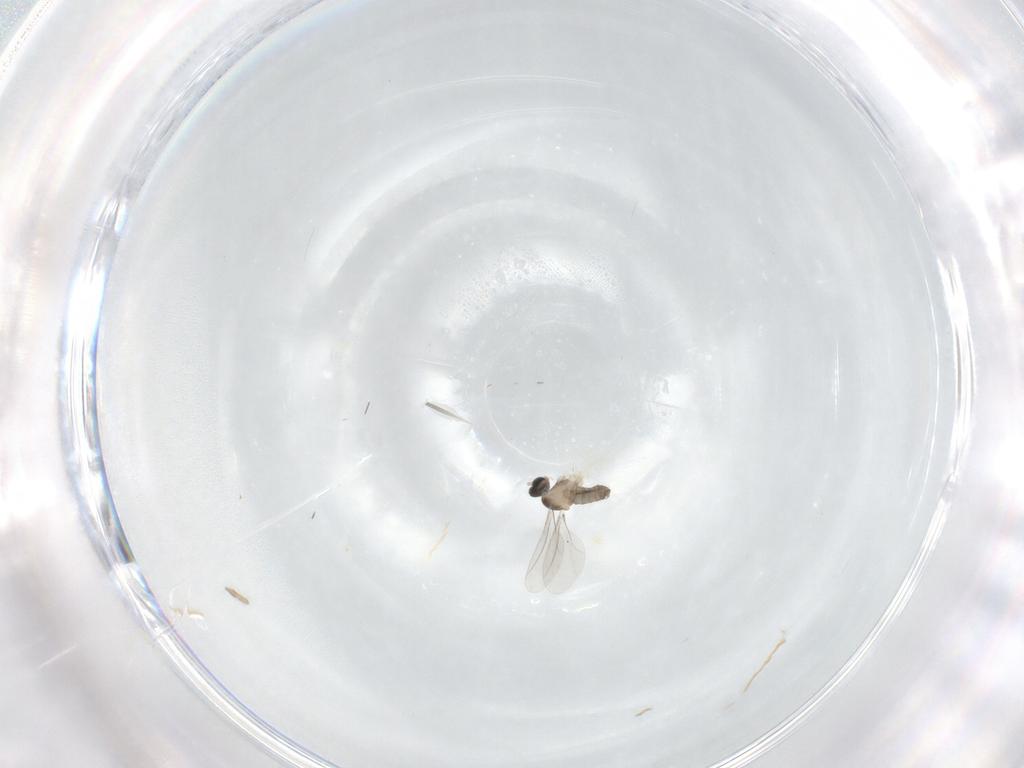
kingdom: Animalia
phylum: Arthropoda
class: Insecta
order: Diptera
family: Cecidomyiidae
